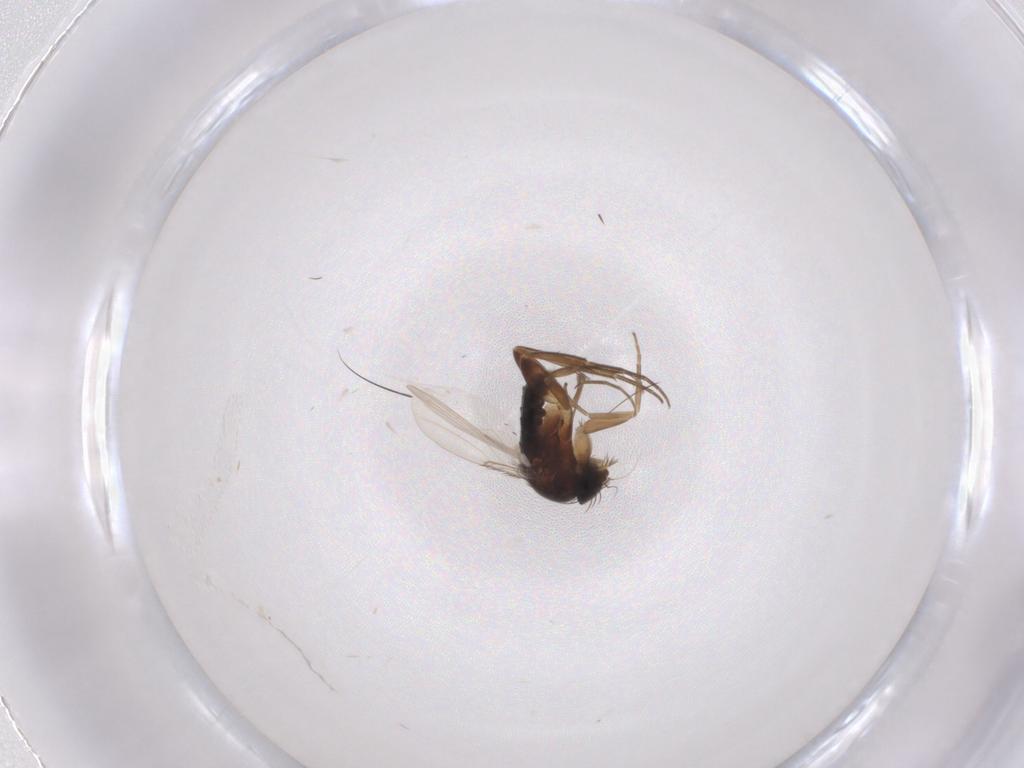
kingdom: Animalia
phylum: Arthropoda
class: Insecta
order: Diptera
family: Phoridae
